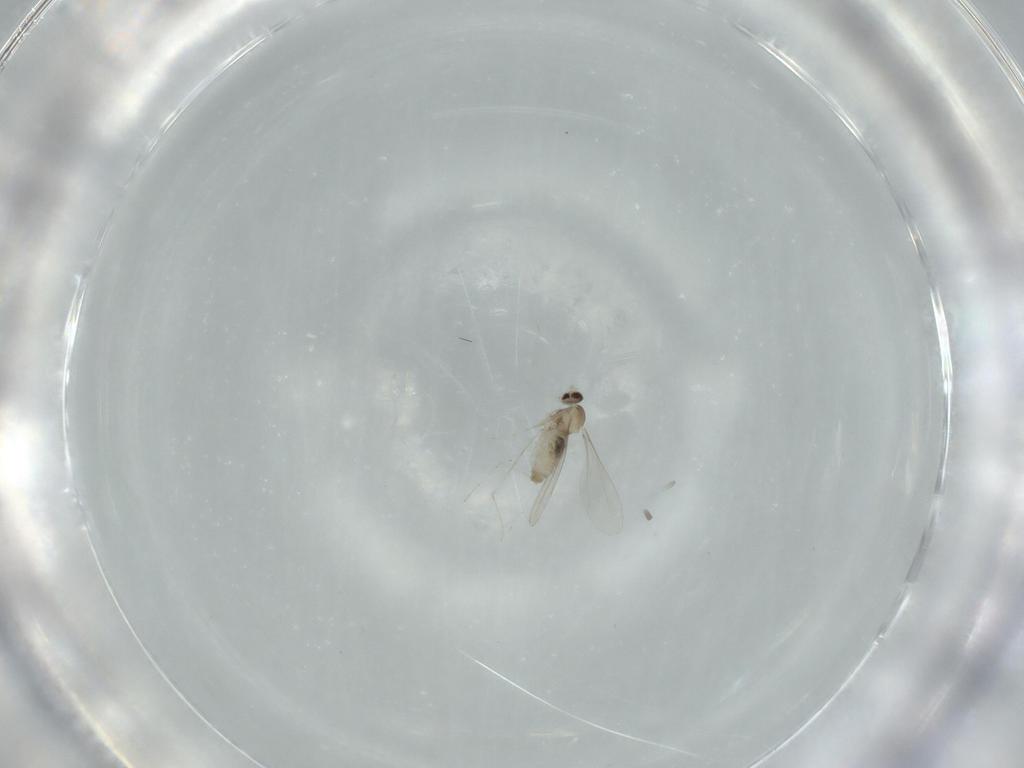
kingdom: Animalia
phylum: Arthropoda
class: Insecta
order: Diptera
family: Cecidomyiidae
